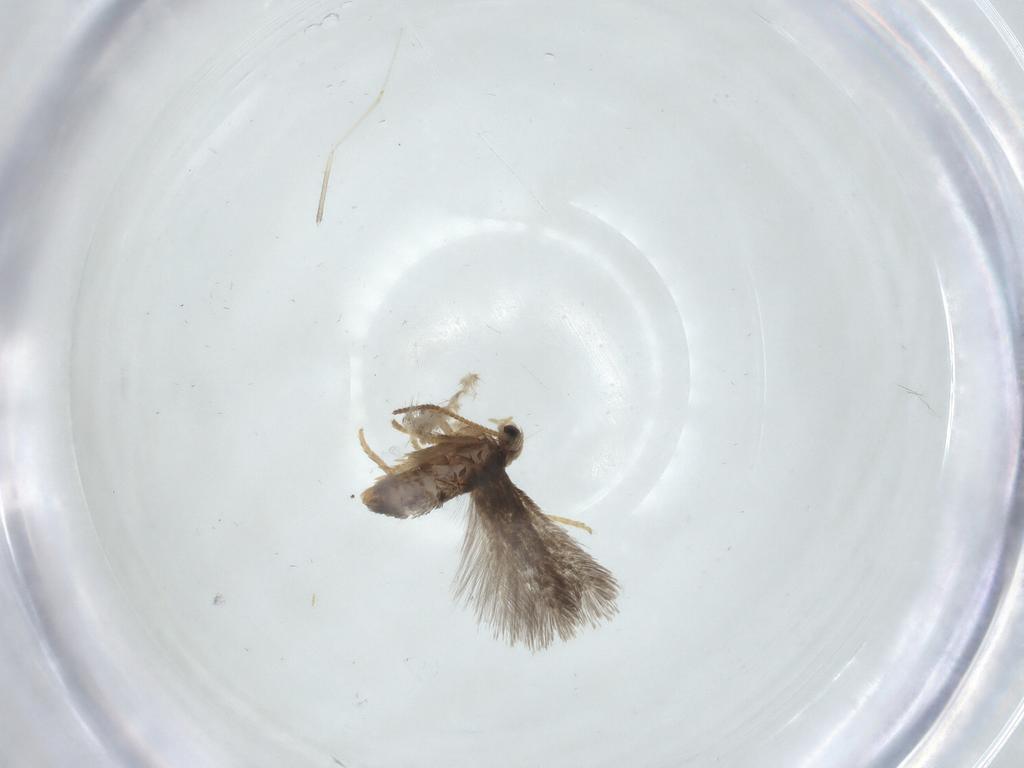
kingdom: Animalia
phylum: Arthropoda
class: Insecta
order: Lepidoptera
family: Nepticulidae
